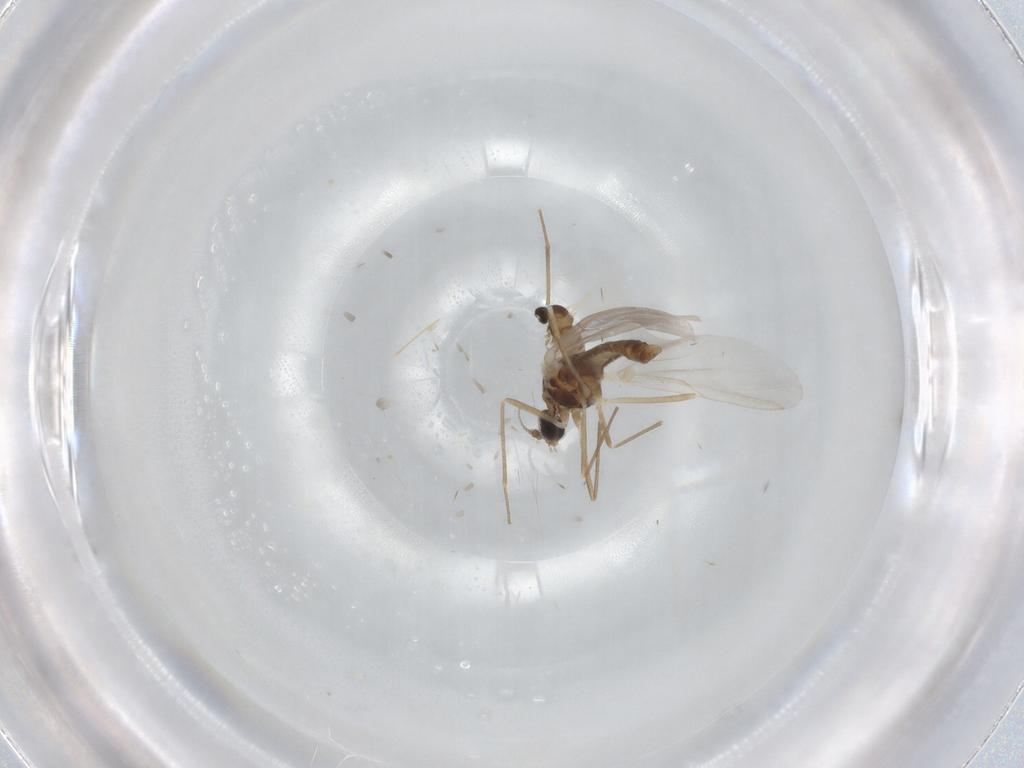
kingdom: Animalia
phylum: Arthropoda
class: Insecta
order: Diptera
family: Cecidomyiidae
